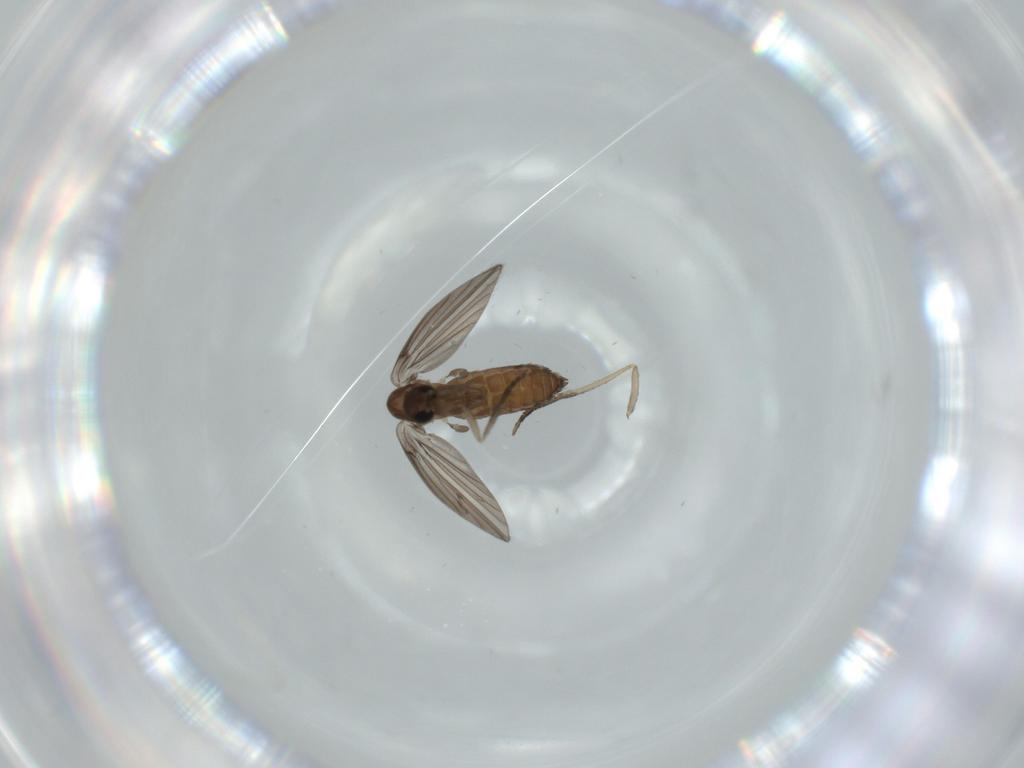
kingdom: Animalia
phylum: Arthropoda
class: Insecta
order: Diptera
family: Psychodidae
